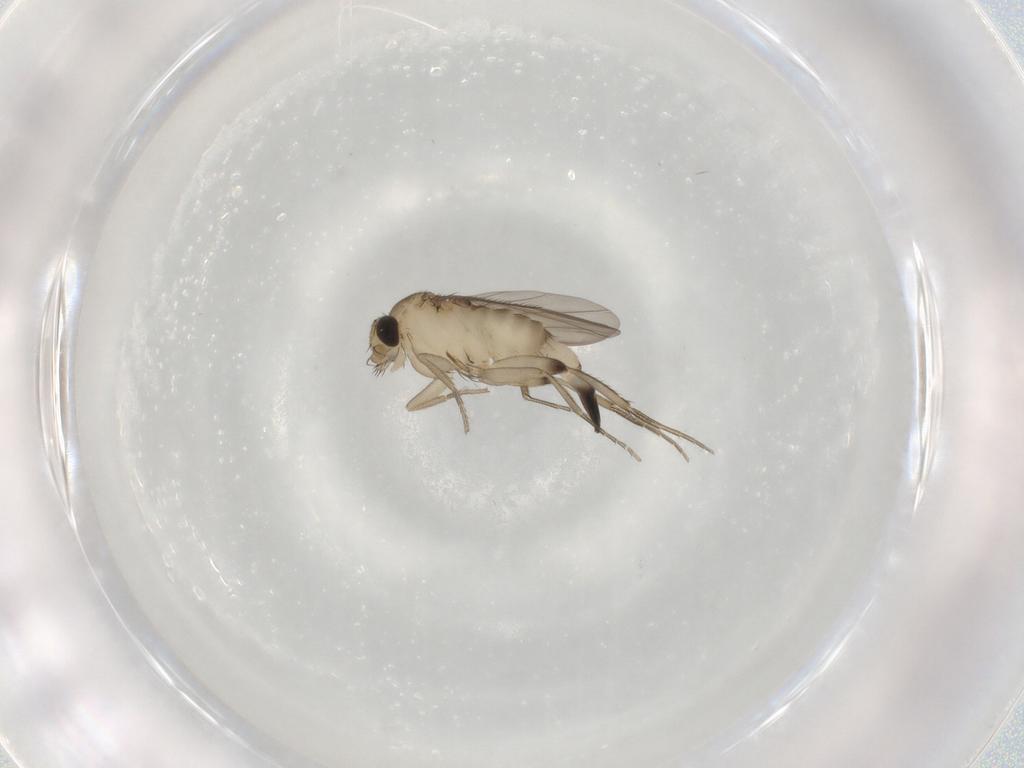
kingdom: Animalia
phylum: Arthropoda
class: Insecta
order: Diptera
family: Phoridae
